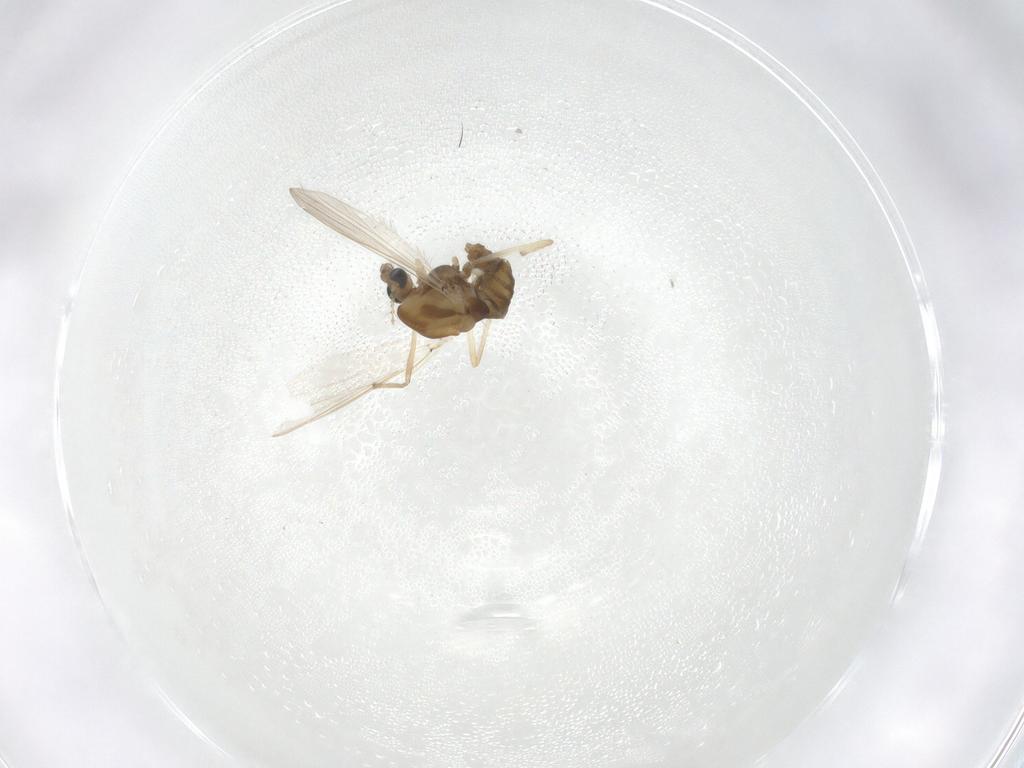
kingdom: Animalia
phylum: Arthropoda
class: Insecta
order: Diptera
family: Chironomidae
